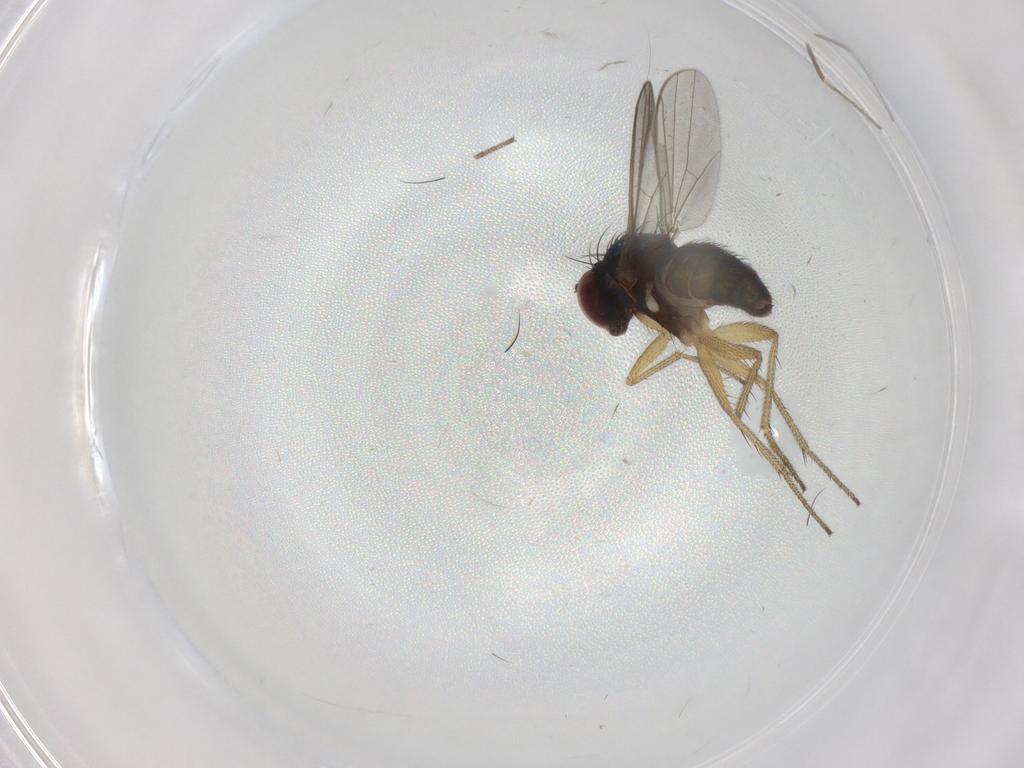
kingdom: Animalia
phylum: Arthropoda
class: Insecta
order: Diptera
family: Dolichopodidae
